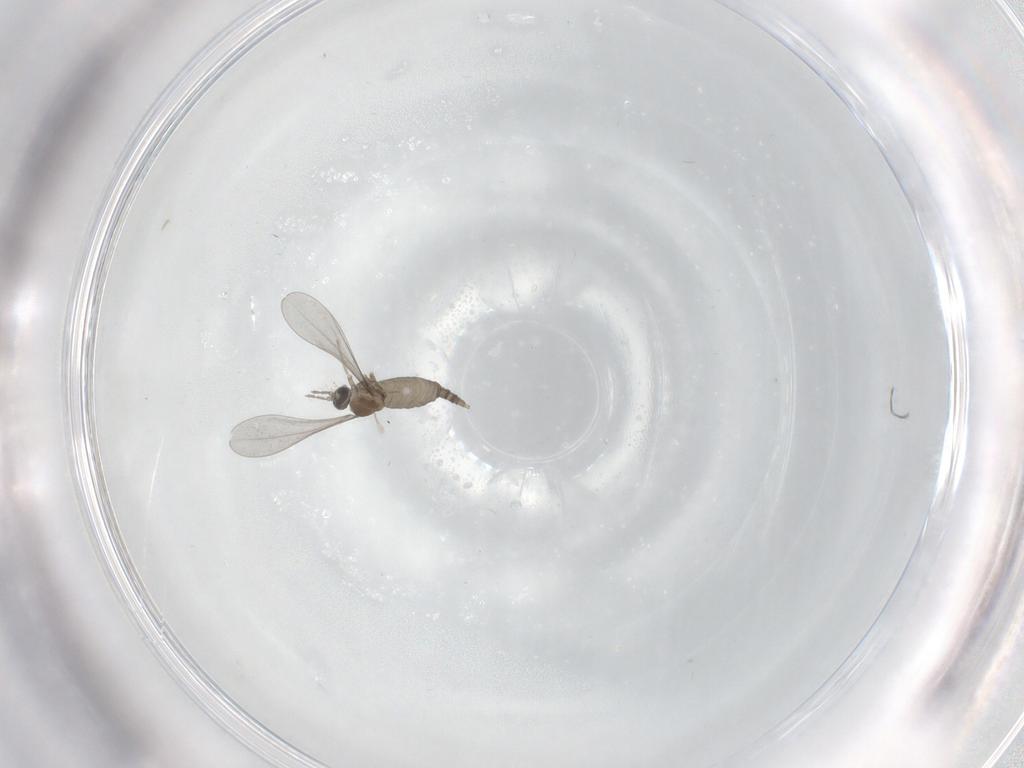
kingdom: Animalia
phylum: Arthropoda
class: Insecta
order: Diptera
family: Cecidomyiidae
